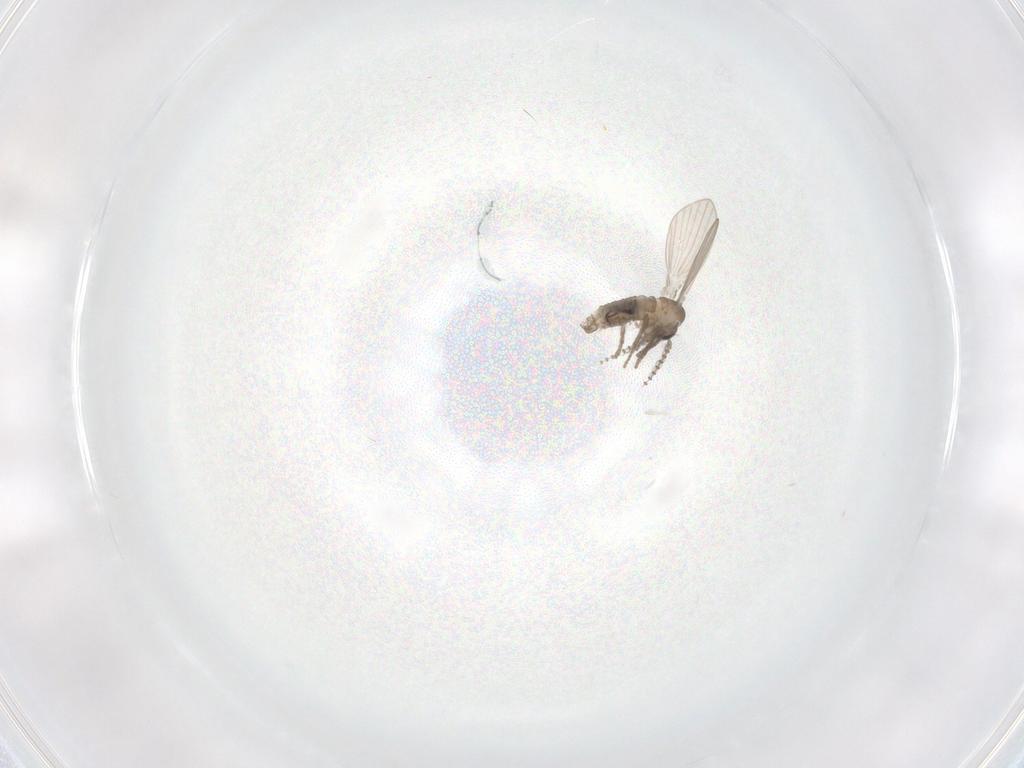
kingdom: Animalia
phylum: Arthropoda
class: Insecta
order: Diptera
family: Psychodidae
